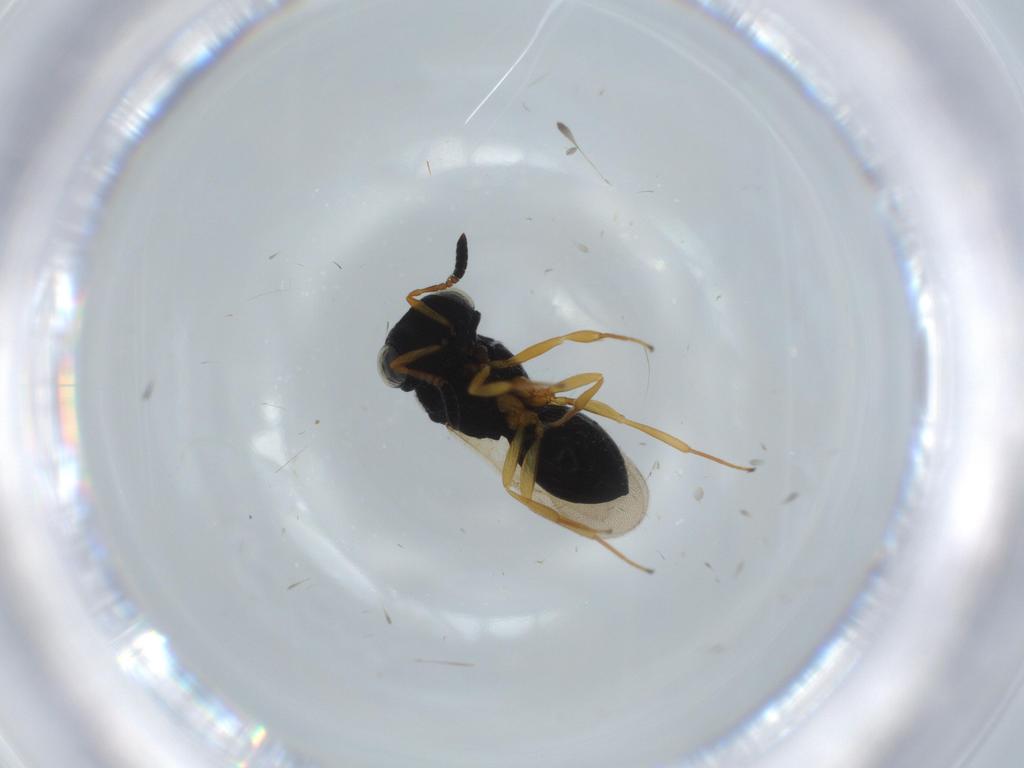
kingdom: Animalia
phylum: Arthropoda
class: Insecta
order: Hymenoptera
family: Scelionidae
